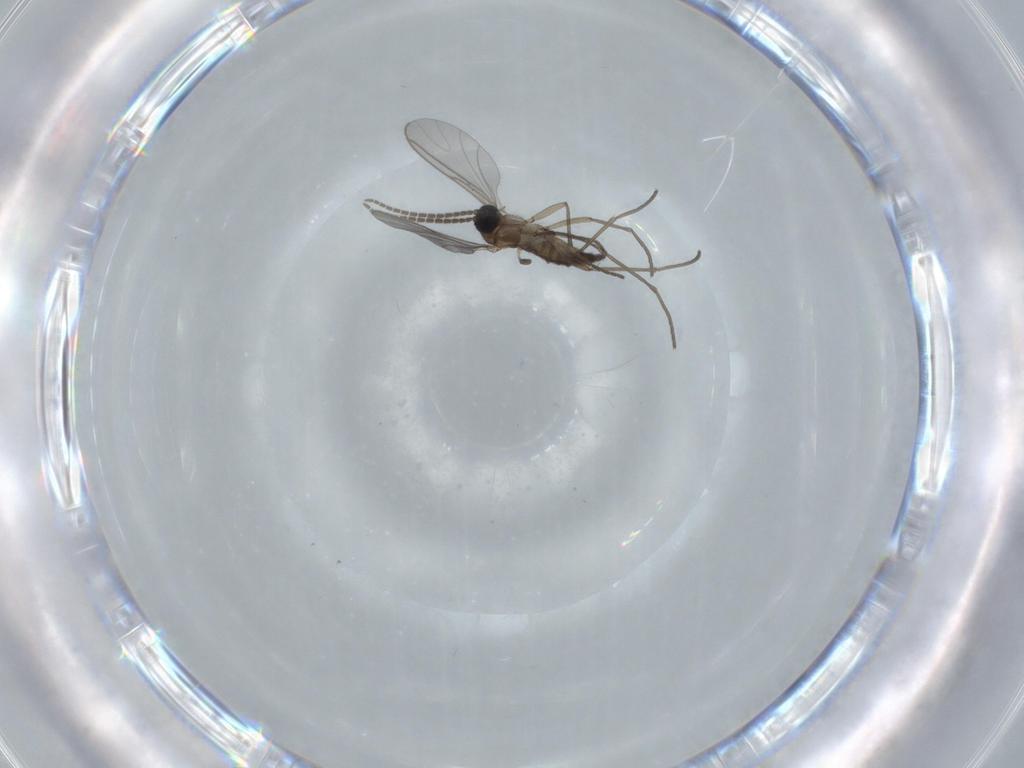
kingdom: Animalia
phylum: Arthropoda
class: Insecta
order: Diptera
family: Sciaridae
